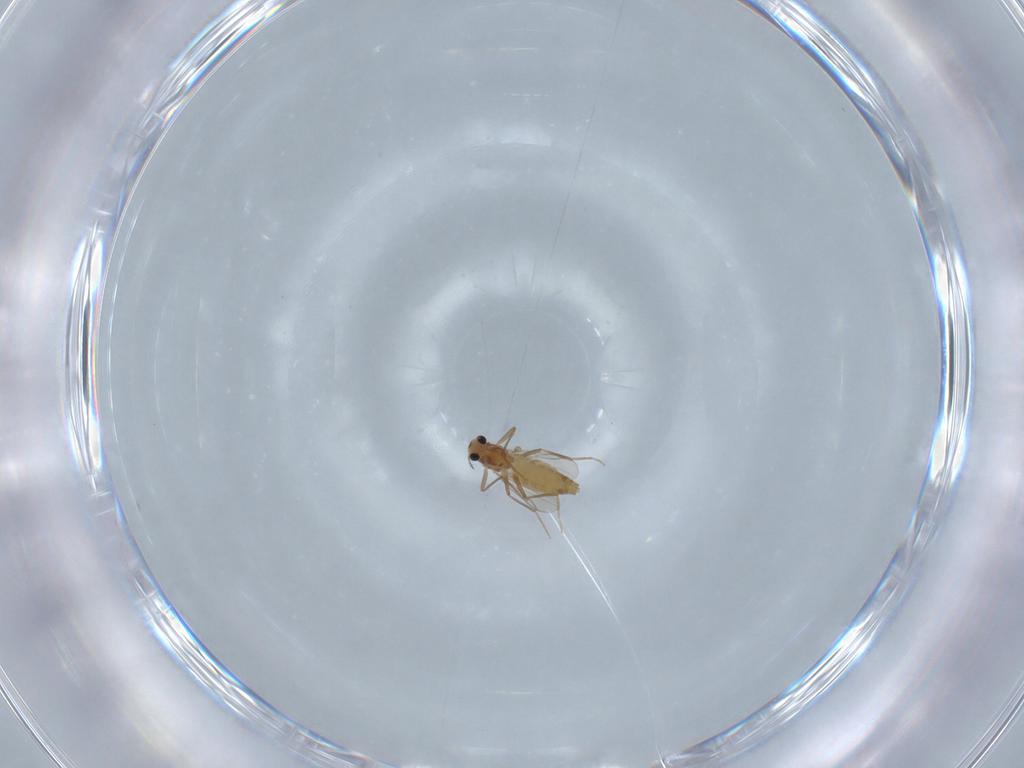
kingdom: Animalia
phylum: Arthropoda
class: Insecta
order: Diptera
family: Chironomidae
